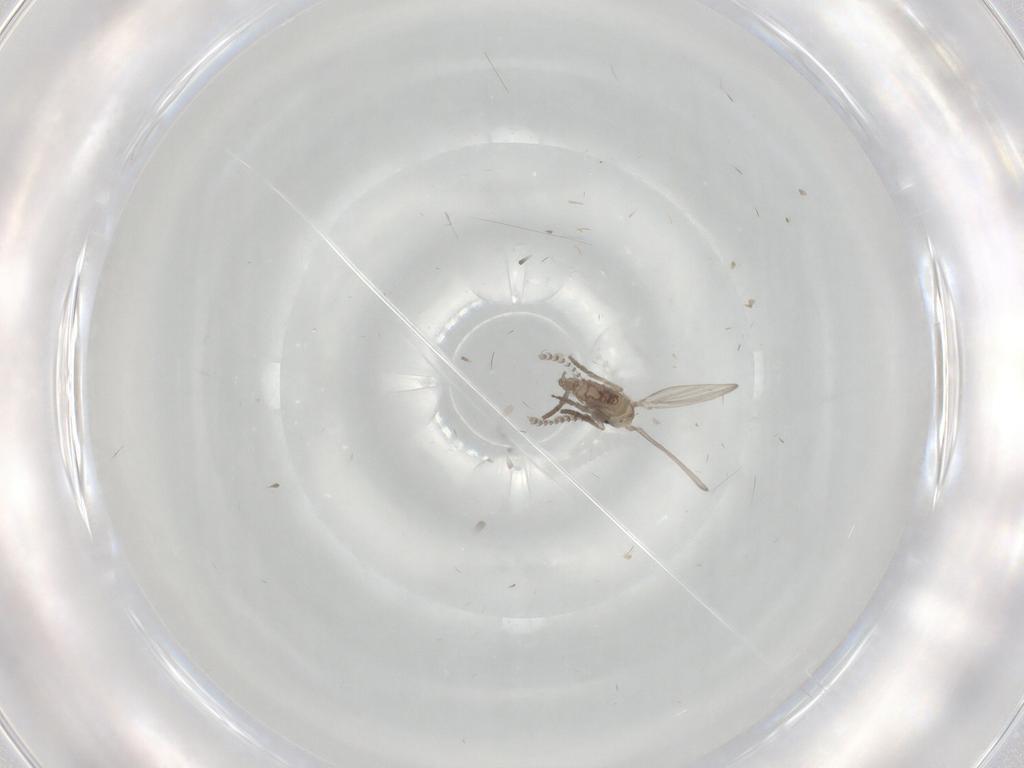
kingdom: Animalia
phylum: Arthropoda
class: Insecta
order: Diptera
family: Psychodidae
